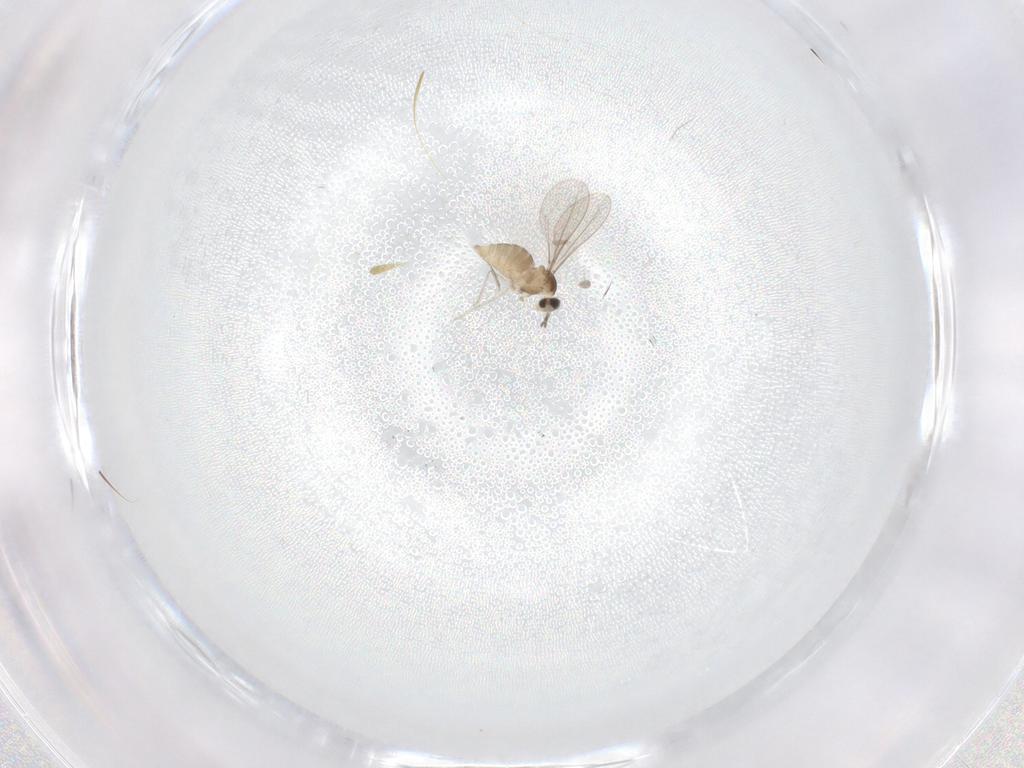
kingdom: Animalia
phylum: Arthropoda
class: Insecta
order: Diptera
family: Cecidomyiidae
